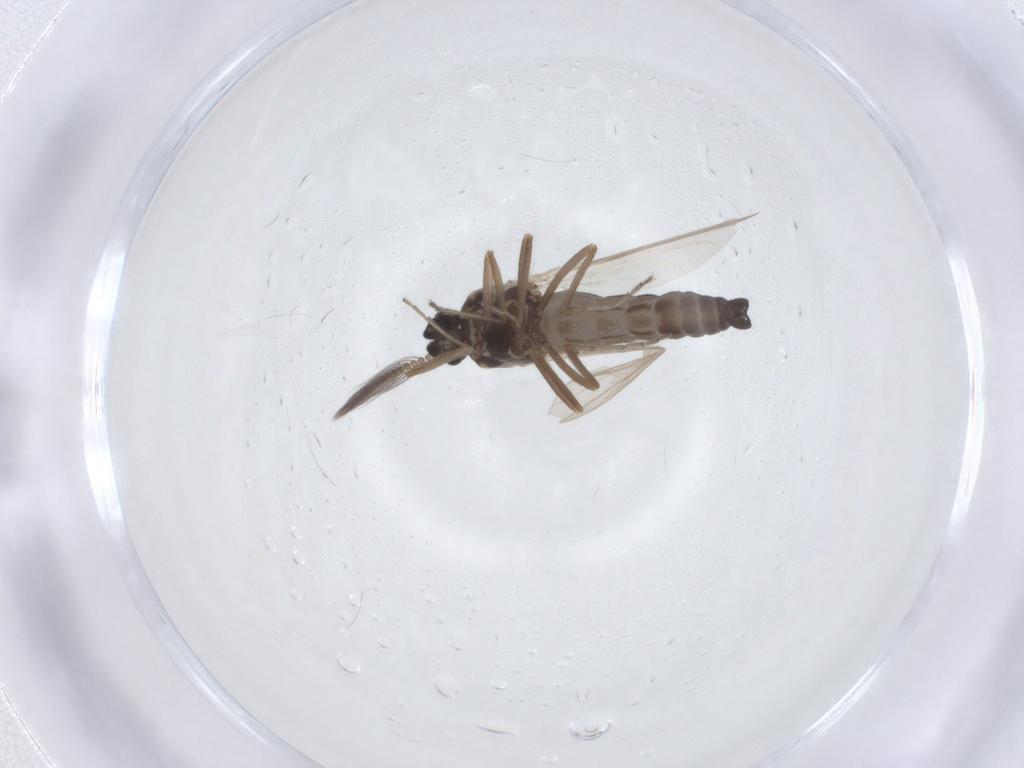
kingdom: Animalia
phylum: Arthropoda
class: Insecta
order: Diptera
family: Ceratopogonidae
